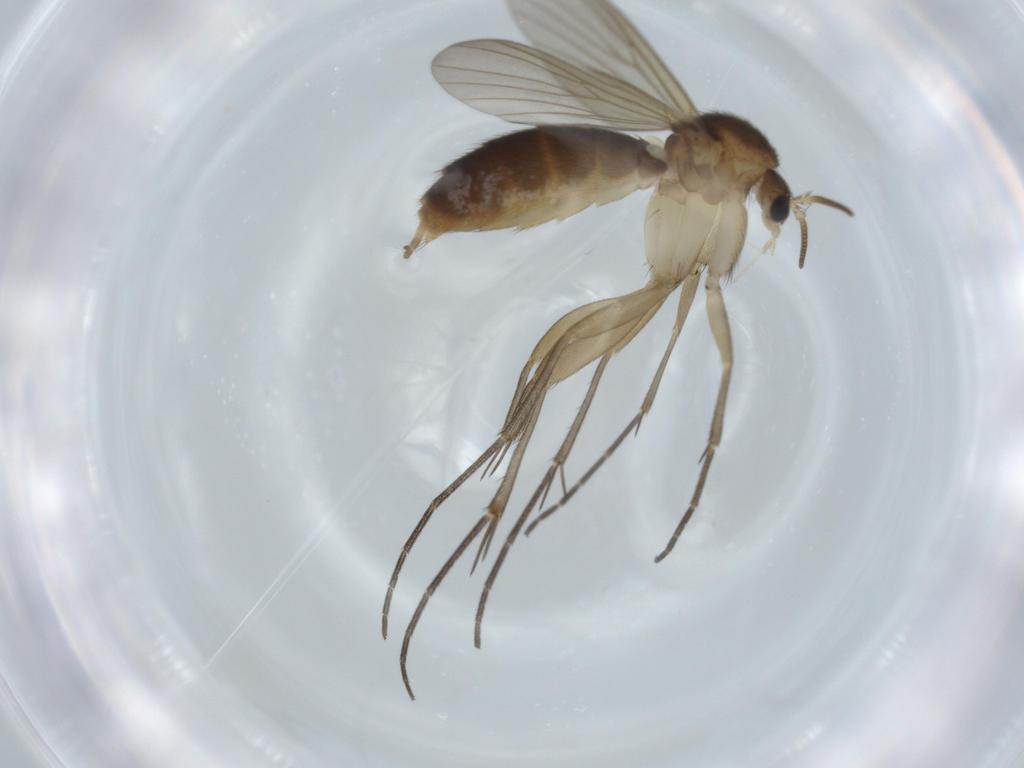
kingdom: Animalia
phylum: Arthropoda
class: Insecta
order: Diptera
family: Mycetophilidae
